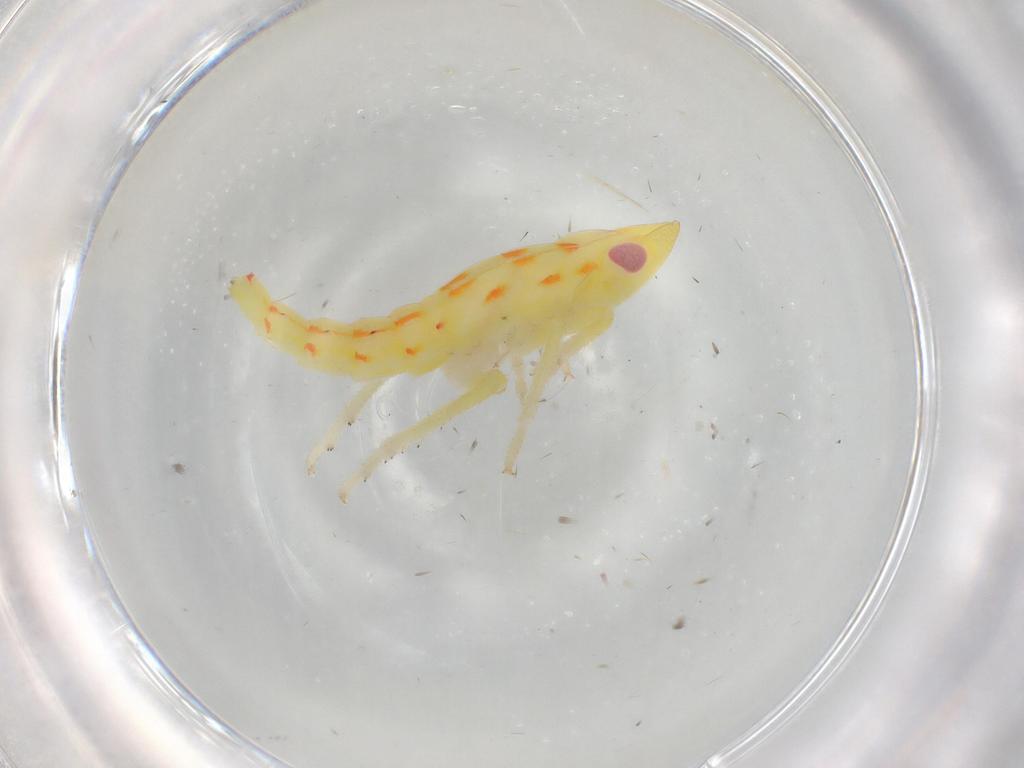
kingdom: Animalia
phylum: Arthropoda
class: Insecta
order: Hemiptera
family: Tropiduchidae
